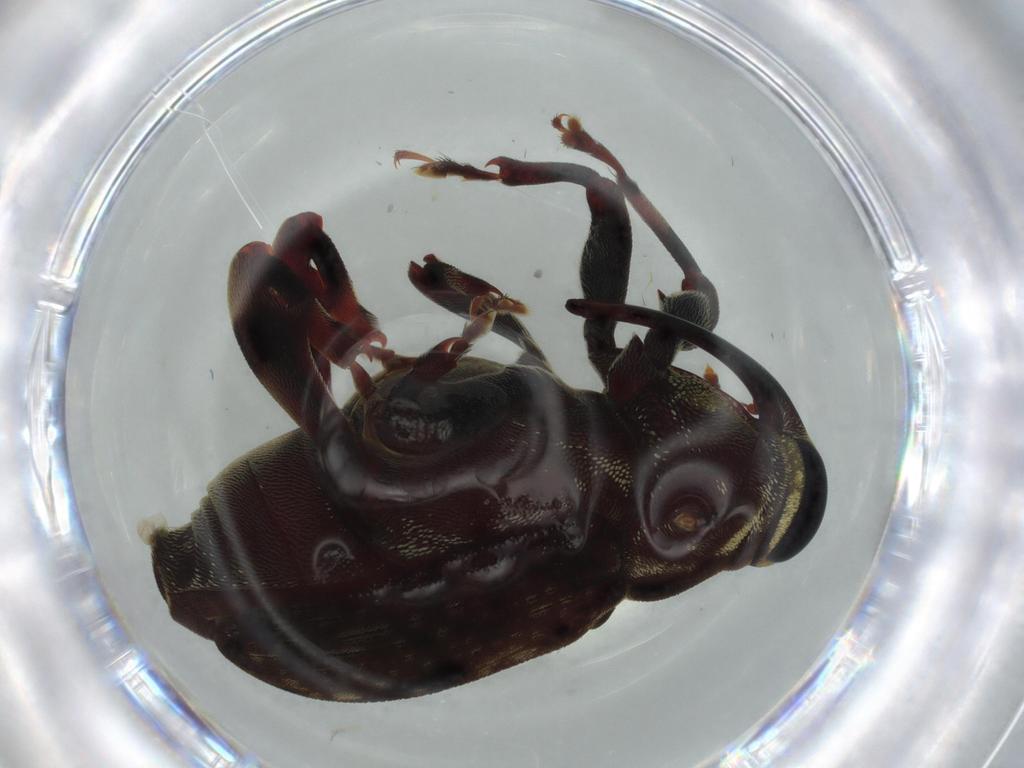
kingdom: Animalia
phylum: Arthropoda
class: Insecta
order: Coleoptera
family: Curculionidae
